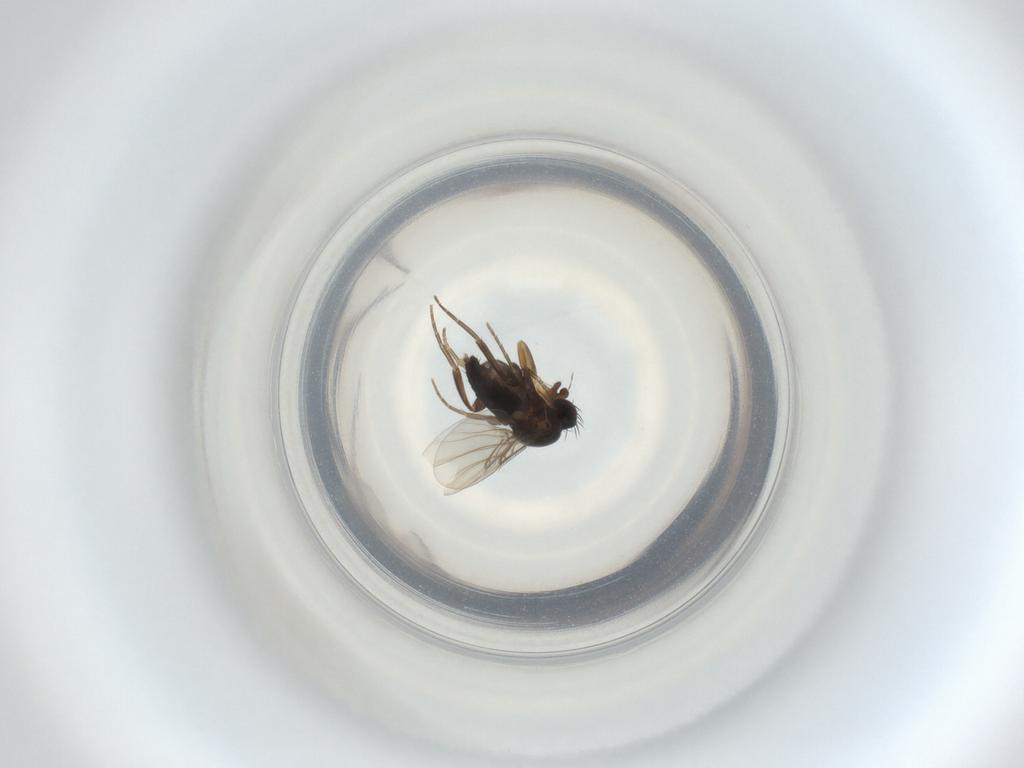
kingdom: Animalia
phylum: Arthropoda
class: Insecta
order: Diptera
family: Phoridae
